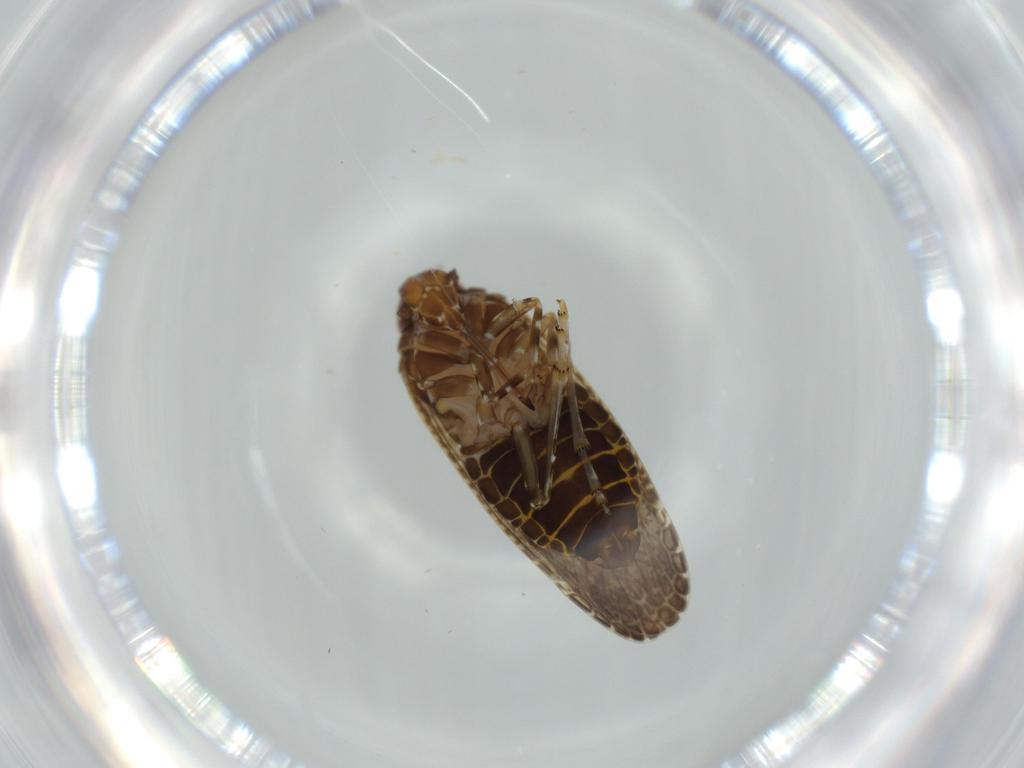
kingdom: Animalia
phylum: Arthropoda
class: Insecta
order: Hemiptera
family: Achilidae
